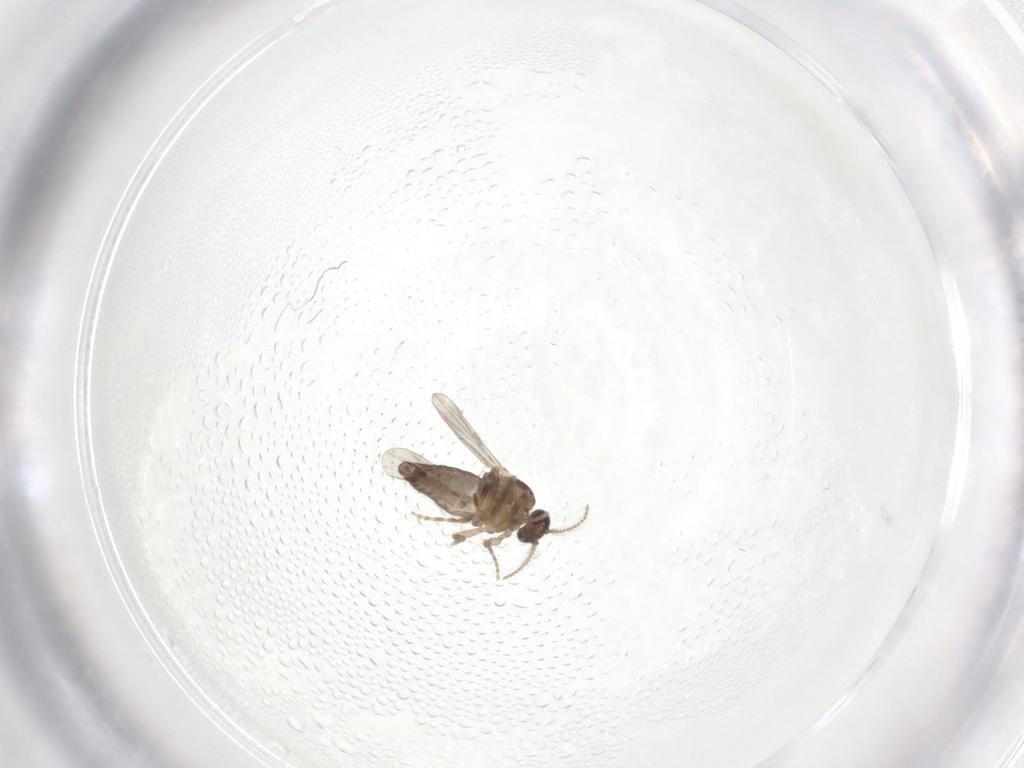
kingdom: Animalia
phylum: Arthropoda
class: Insecta
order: Diptera
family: Ceratopogonidae
